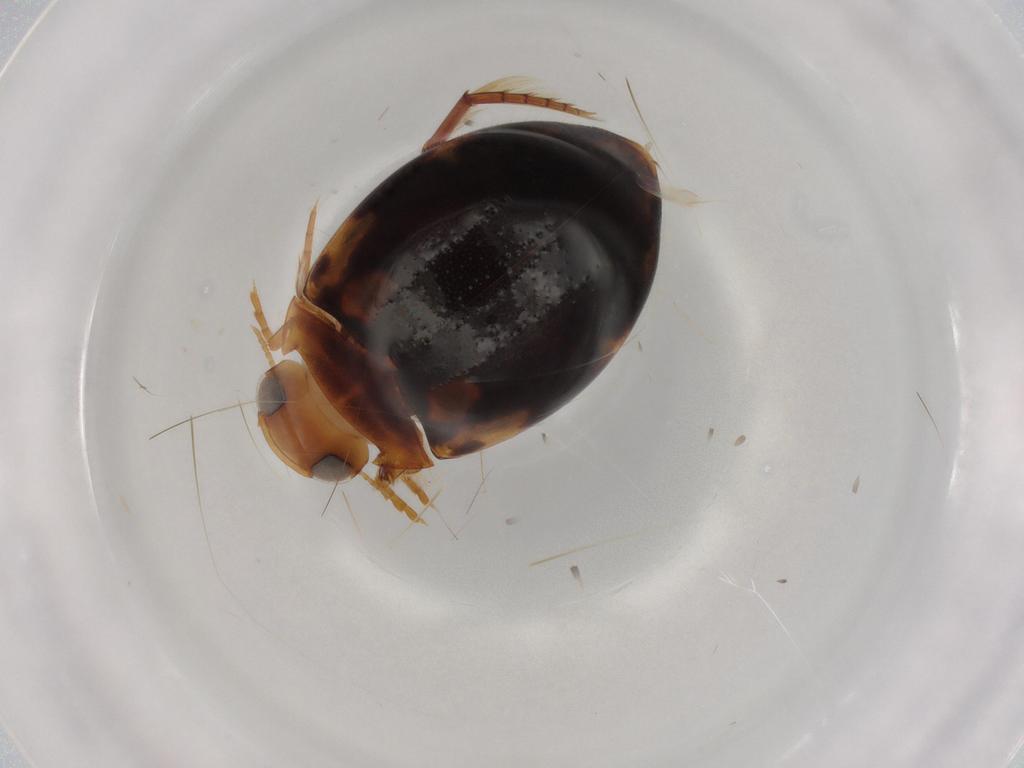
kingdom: Animalia
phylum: Arthropoda
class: Insecta
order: Coleoptera
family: Dytiscidae
